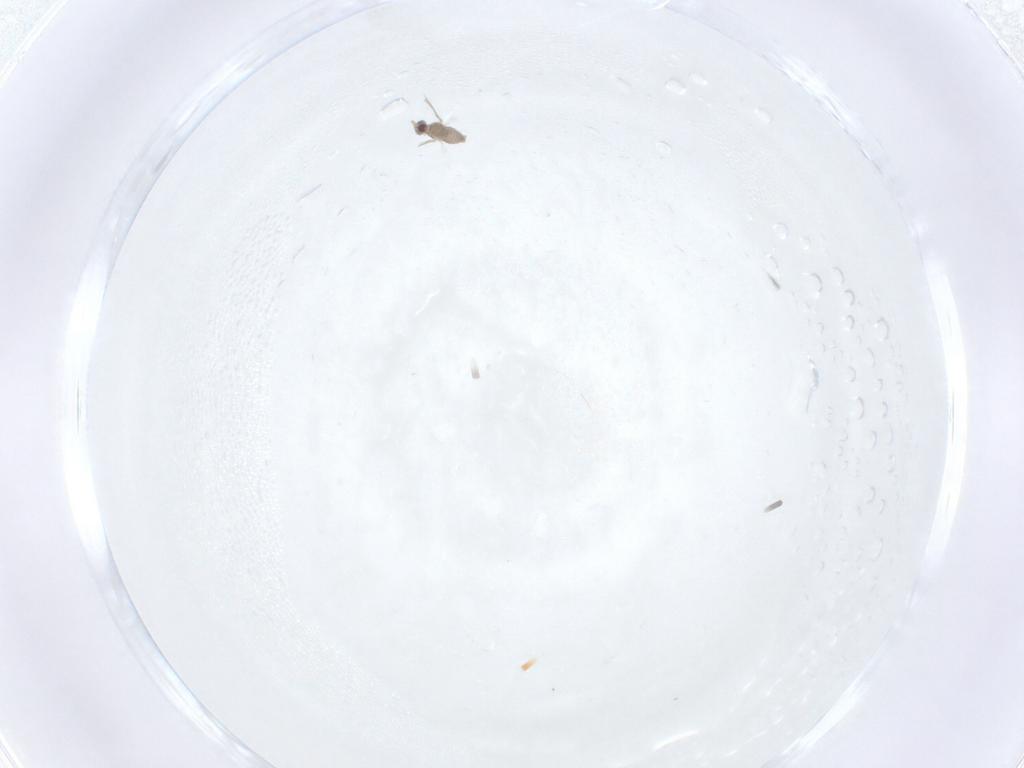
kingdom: Animalia
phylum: Arthropoda
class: Insecta
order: Diptera
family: Cecidomyiidae
